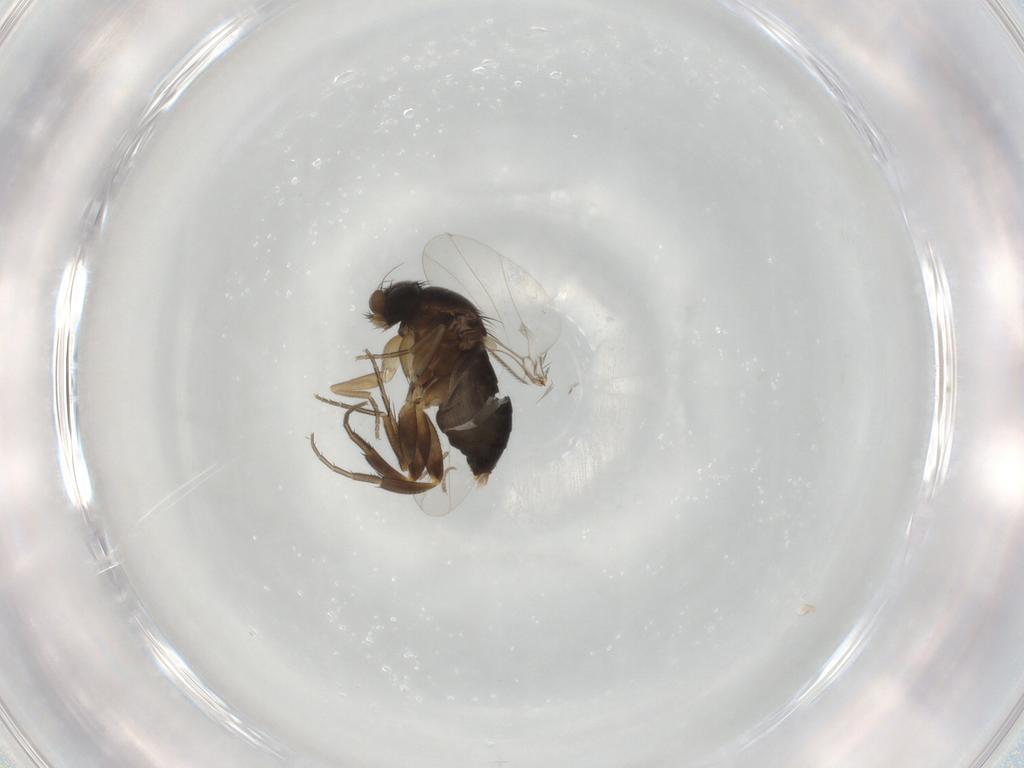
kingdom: Animalia
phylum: Arthropoda
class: Insecta
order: Diptera
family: Phoridae
